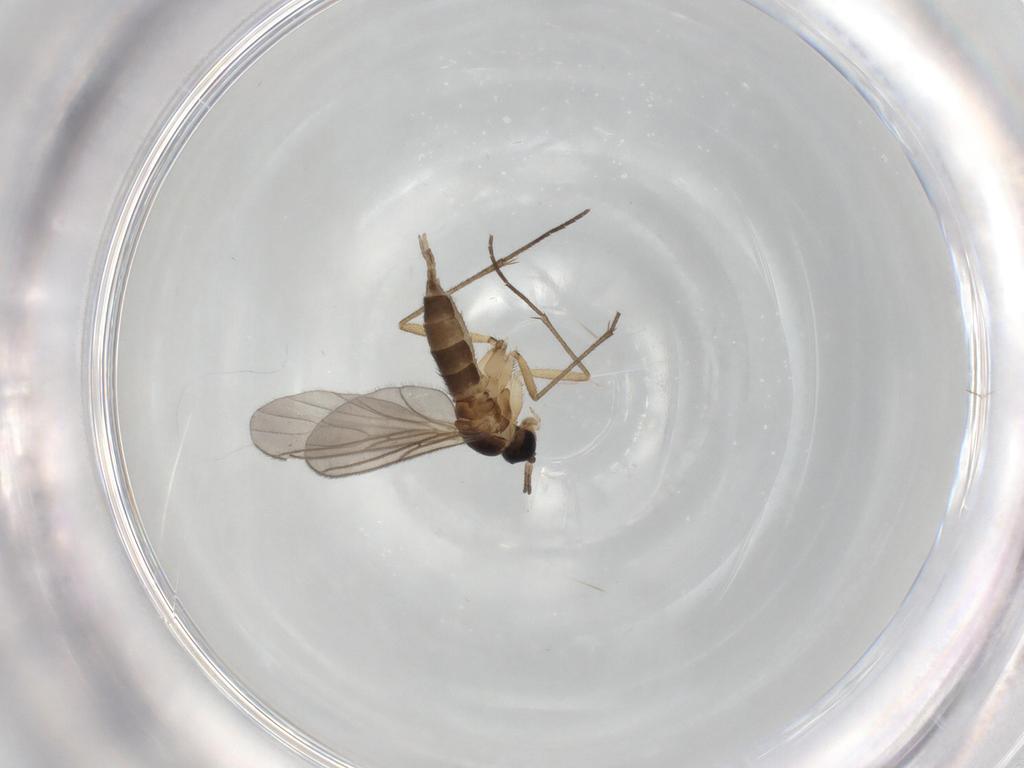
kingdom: Animalia
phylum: Arthropoda
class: Insecta
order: Diptera
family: Sciaridae
